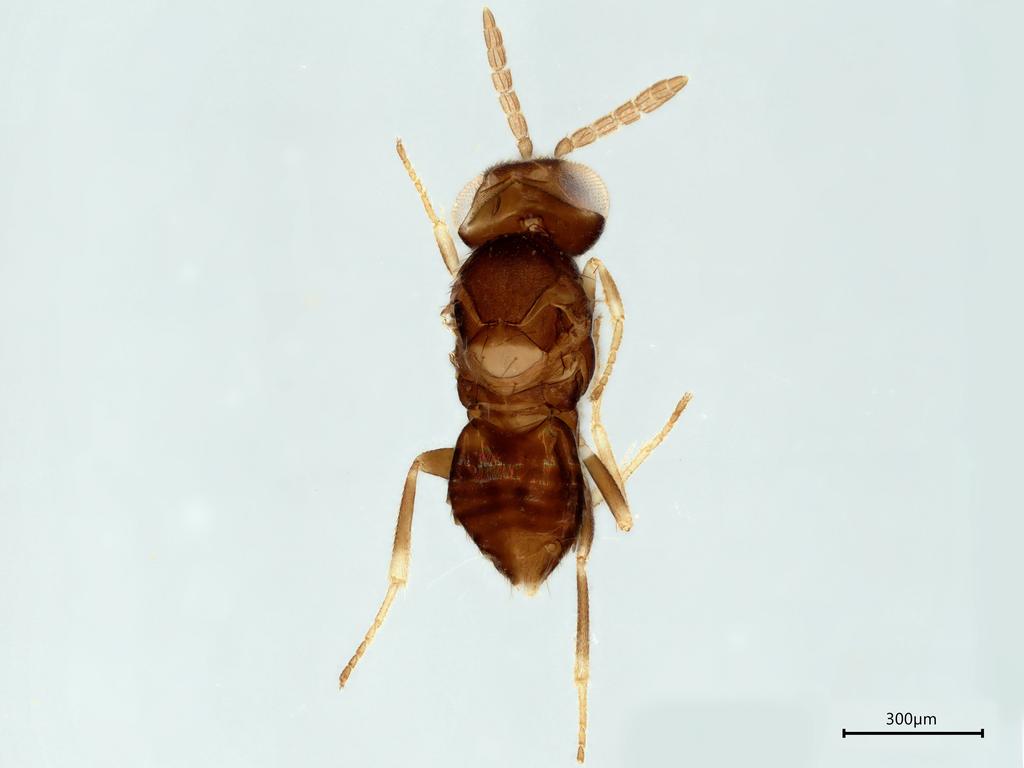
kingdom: Animalia
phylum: Arthropoda
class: Insecta
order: Hymenoptera
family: Aphelinidae
